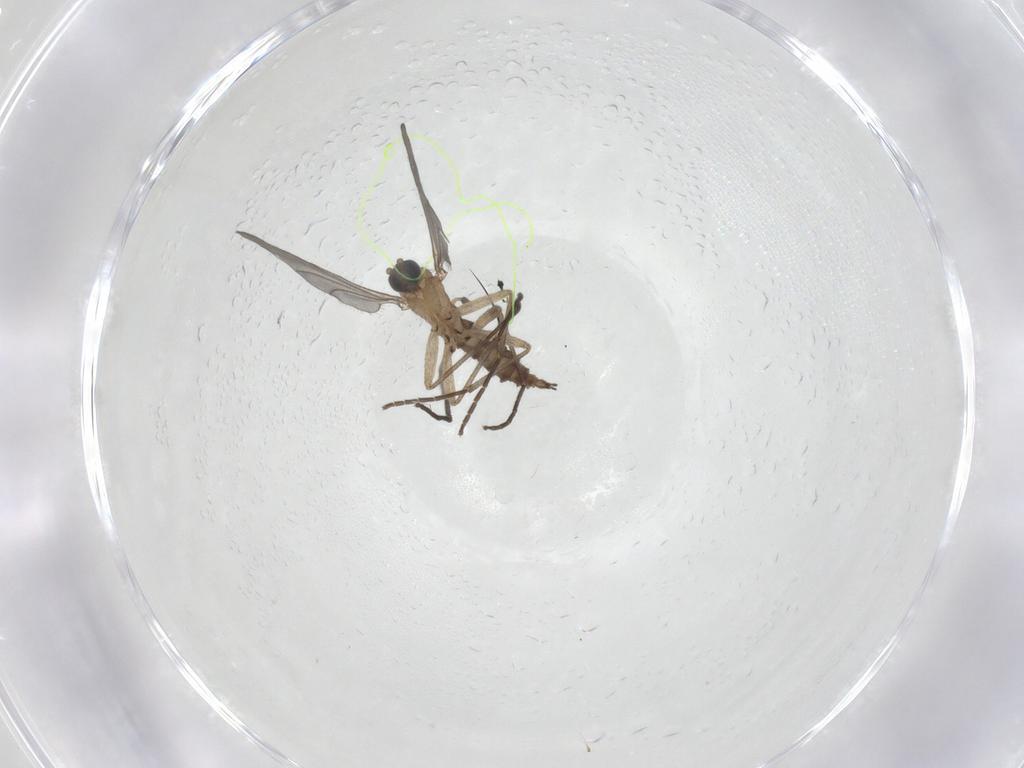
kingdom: Animalia
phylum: Arthropoda
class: Insecta
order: Diptera
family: Sciaridae
